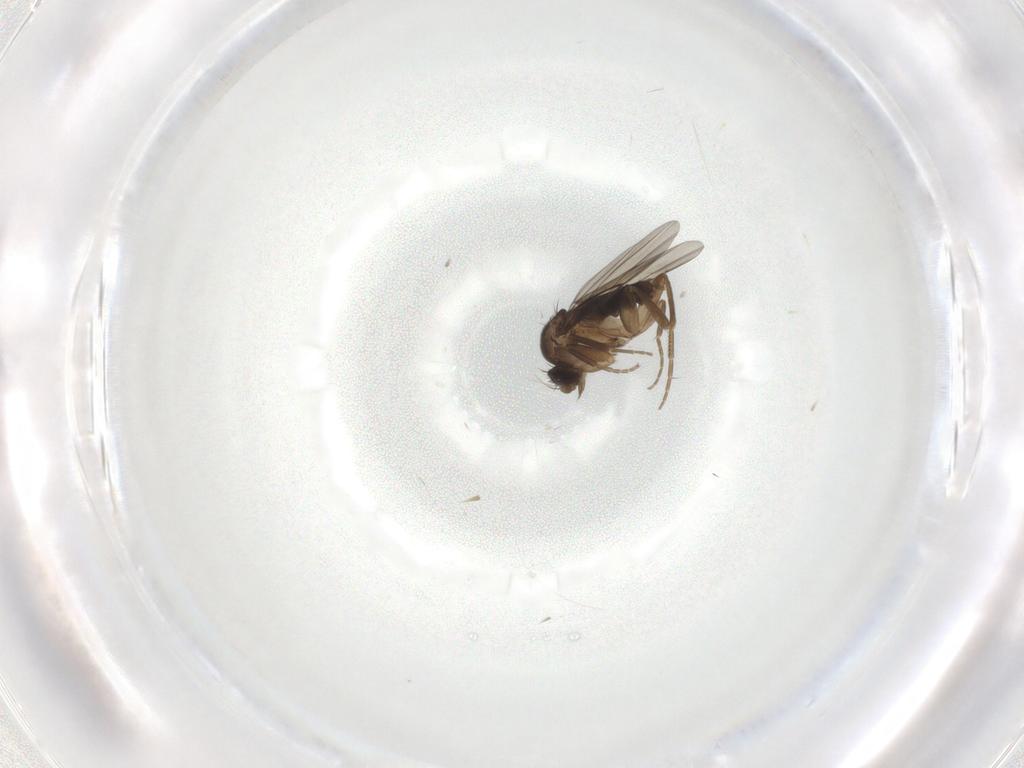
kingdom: Animalia
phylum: Arthropoda
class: Insecta
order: Diptera
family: Phoridae
